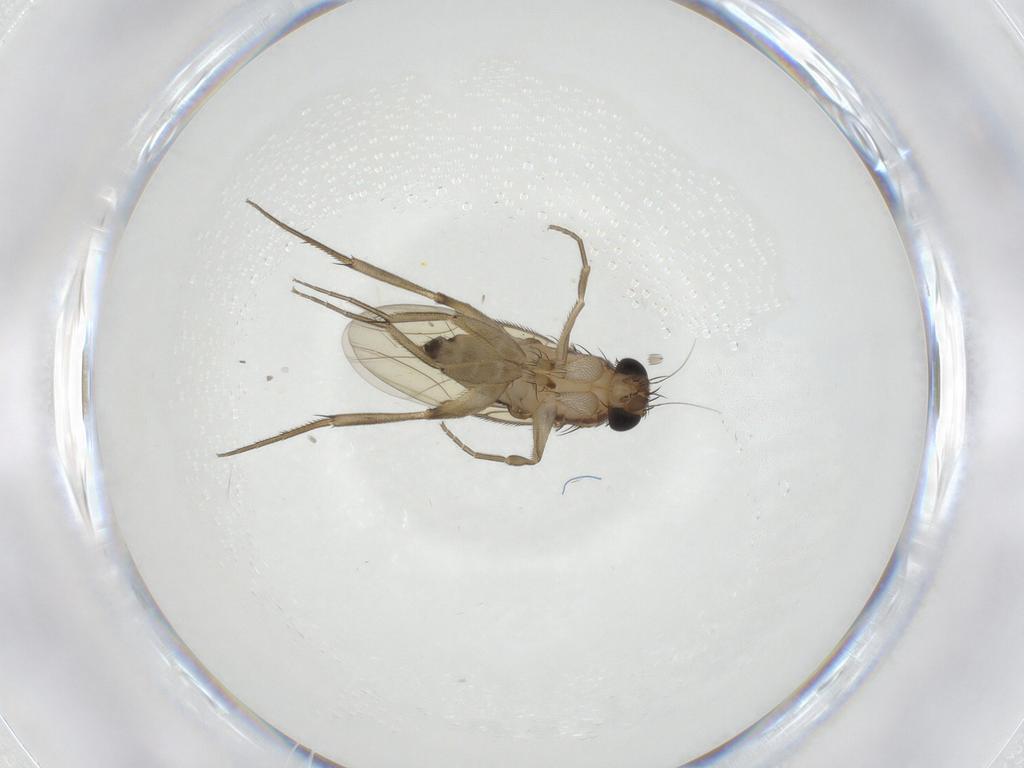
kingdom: Animalia
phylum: Arthropoda
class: Insecta
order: Diptera
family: Phoridae
